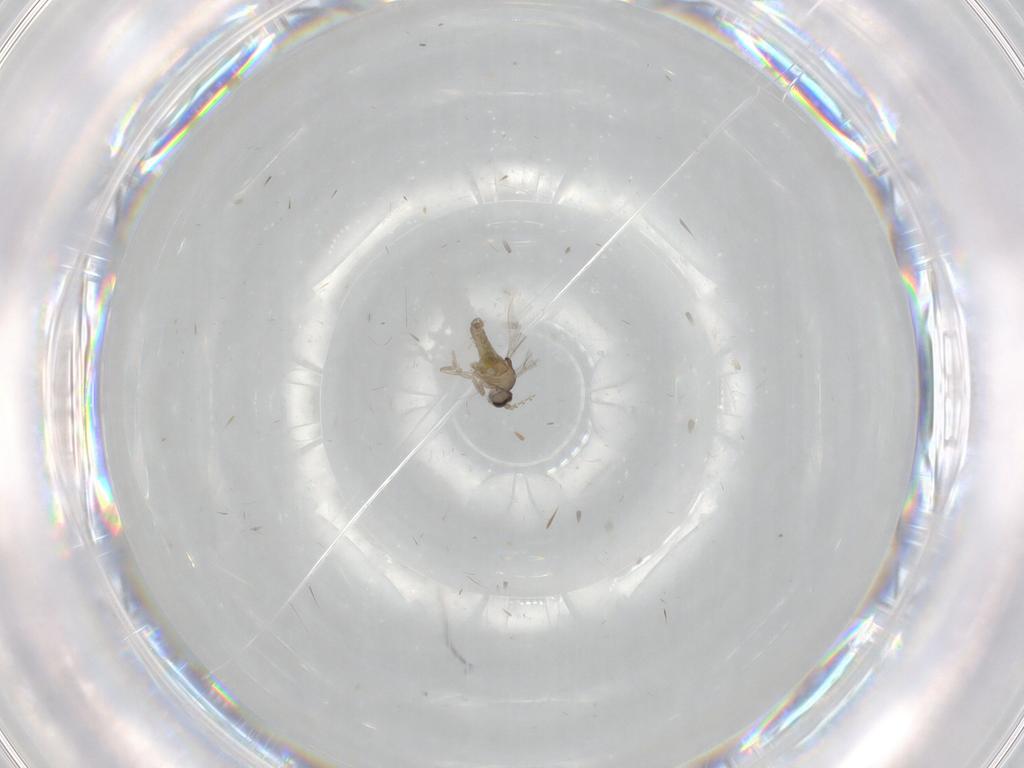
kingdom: Animalia
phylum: Arthropoda
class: Insecta
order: Diptera
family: Cecidomyiidae
